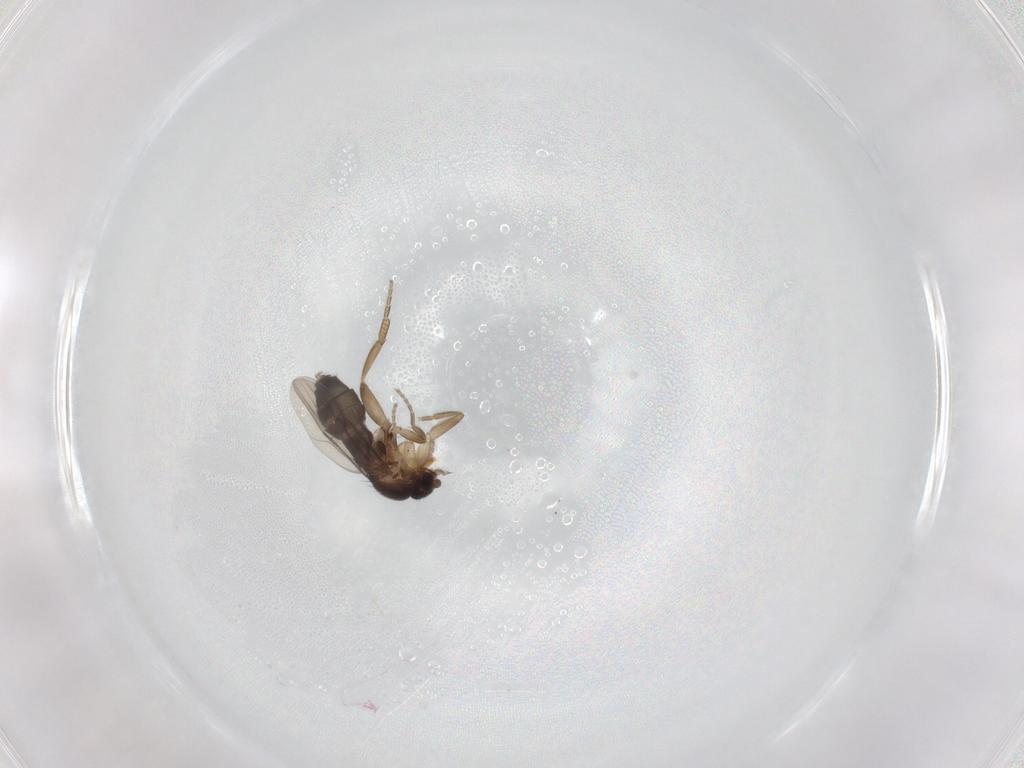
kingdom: Animalia
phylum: Arthropoda
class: Insecta
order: Diptera
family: Phoridae
